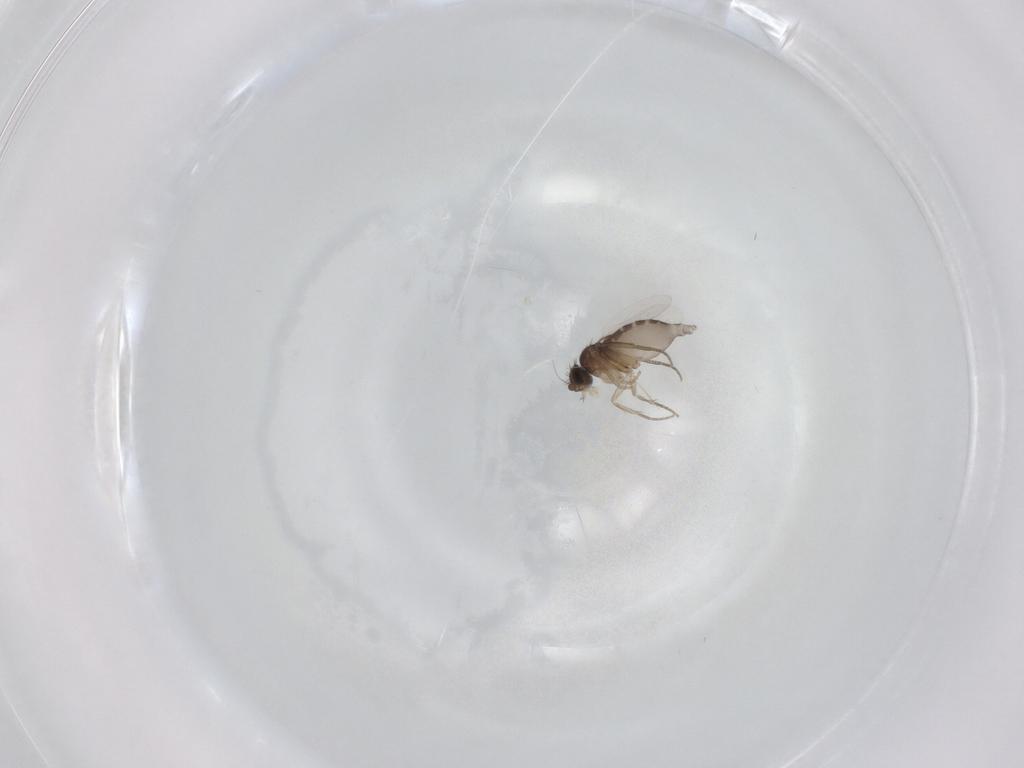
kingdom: Animalia
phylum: Arthropoda
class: Insecta
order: Diptera
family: Phoridae
